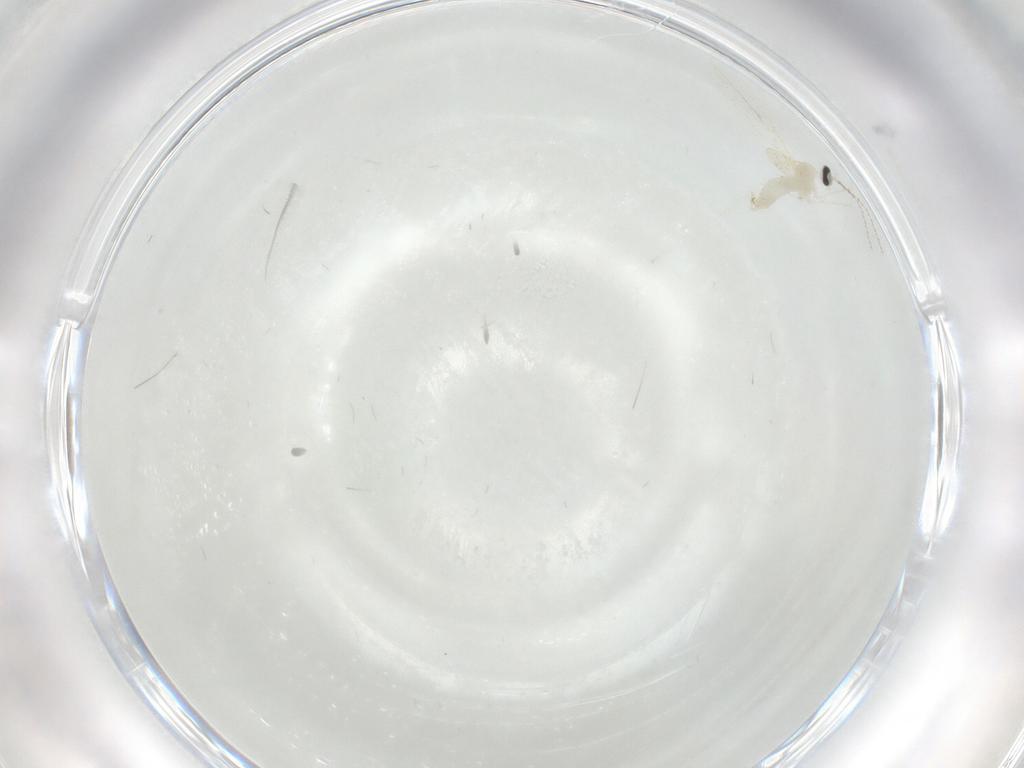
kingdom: Animalia
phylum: Arthropoda
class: Insecta
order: Diptera
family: Cecidomyiidae
